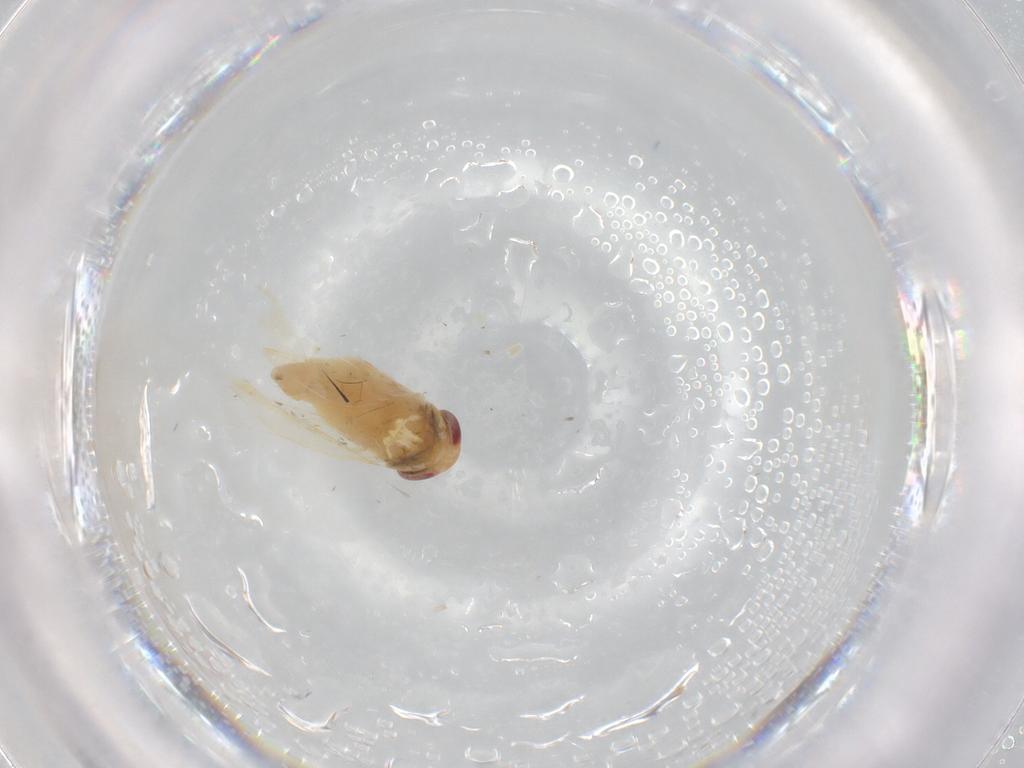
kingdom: Animalia
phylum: Arthropoda
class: Insecta
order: Hemiptera
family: Cicadellidae
